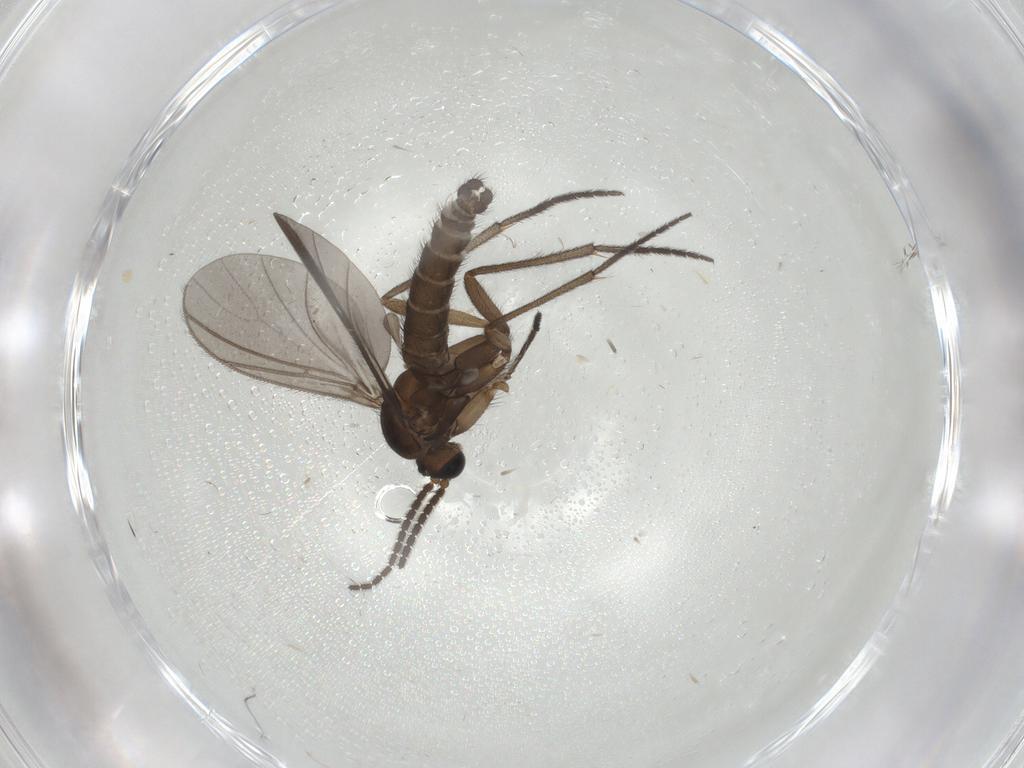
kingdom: Animalia
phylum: Arthropoda
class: Insecta
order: Diptera
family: Sciaridae
